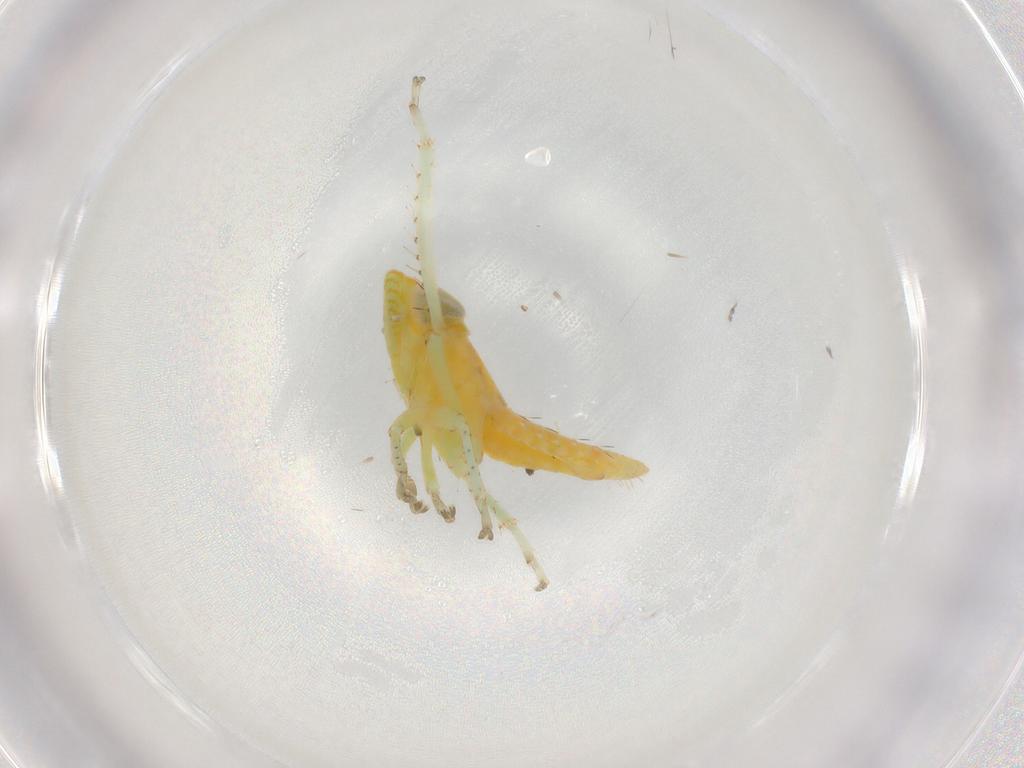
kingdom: Animalia
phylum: Arthropoda
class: Insecta
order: Hemiptera
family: Cicadellidae
